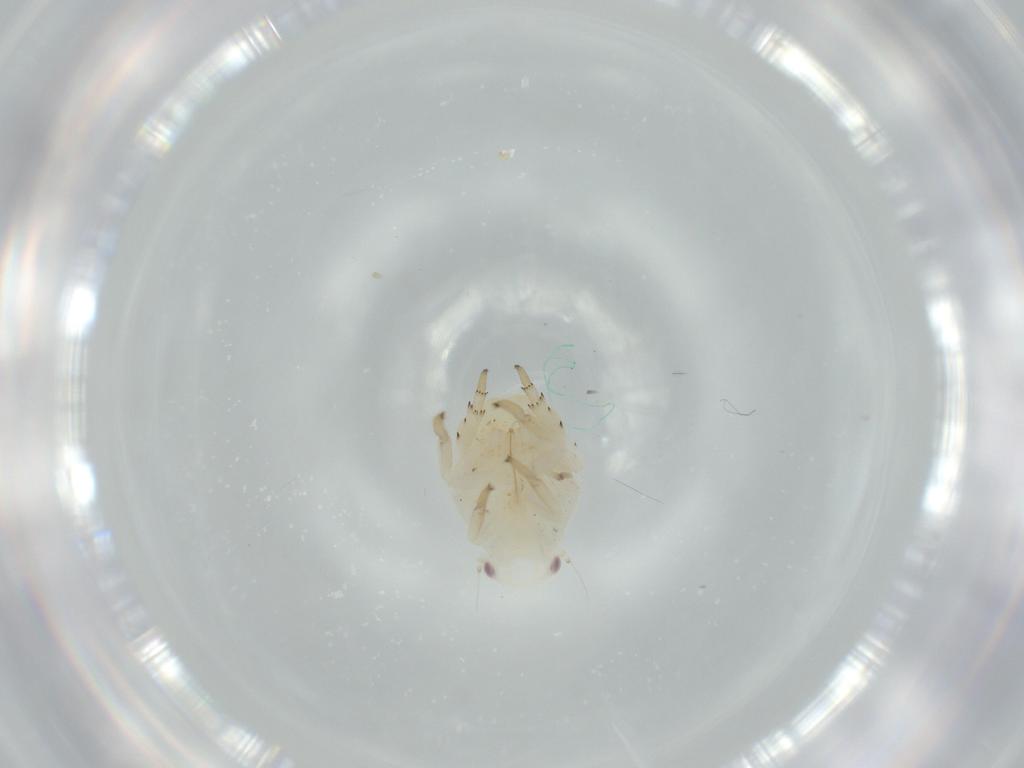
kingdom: Animalia
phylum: Arthropoda
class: Insecta
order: Hemiptera
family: Flatidae
